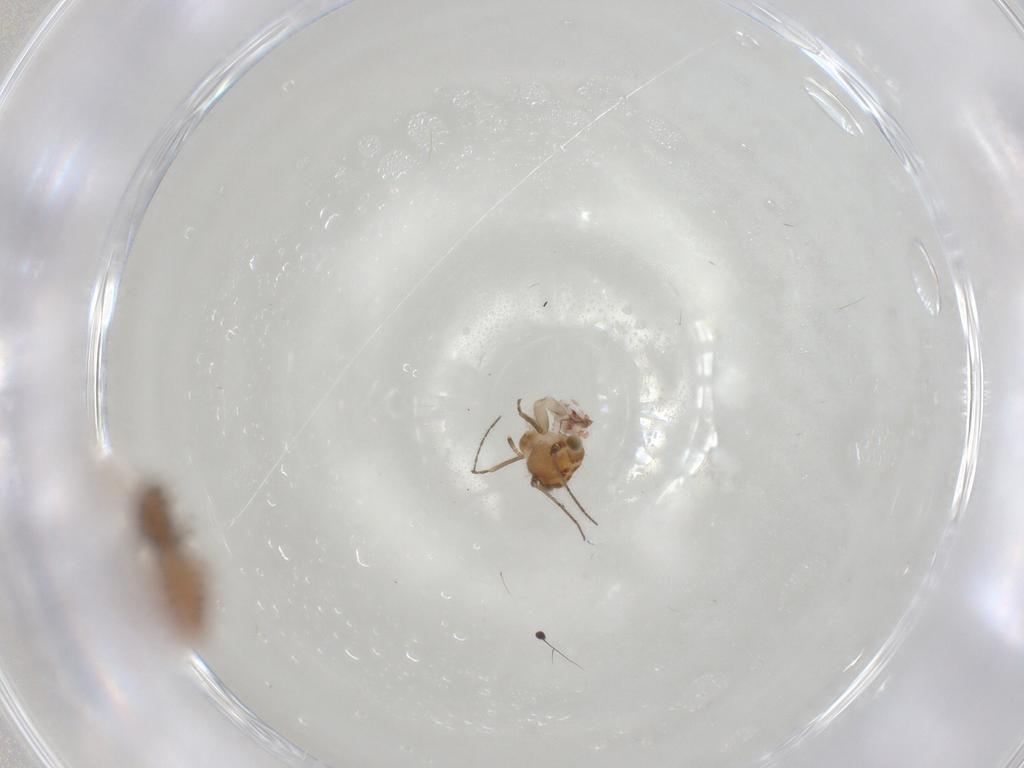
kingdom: Animalia
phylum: Arthropoda
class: Insecta
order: Psocodea
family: Ectopsocidae
